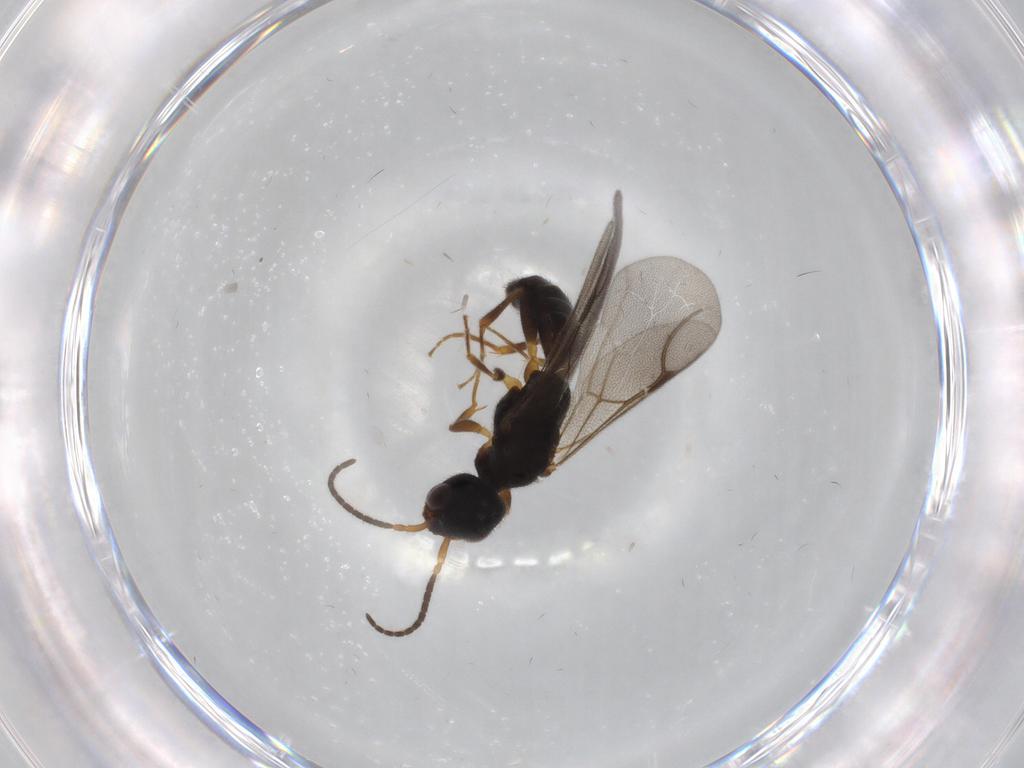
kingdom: Animalia
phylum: Arthropoda
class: Insecta
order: Hymenoptera
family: Bethylidae
